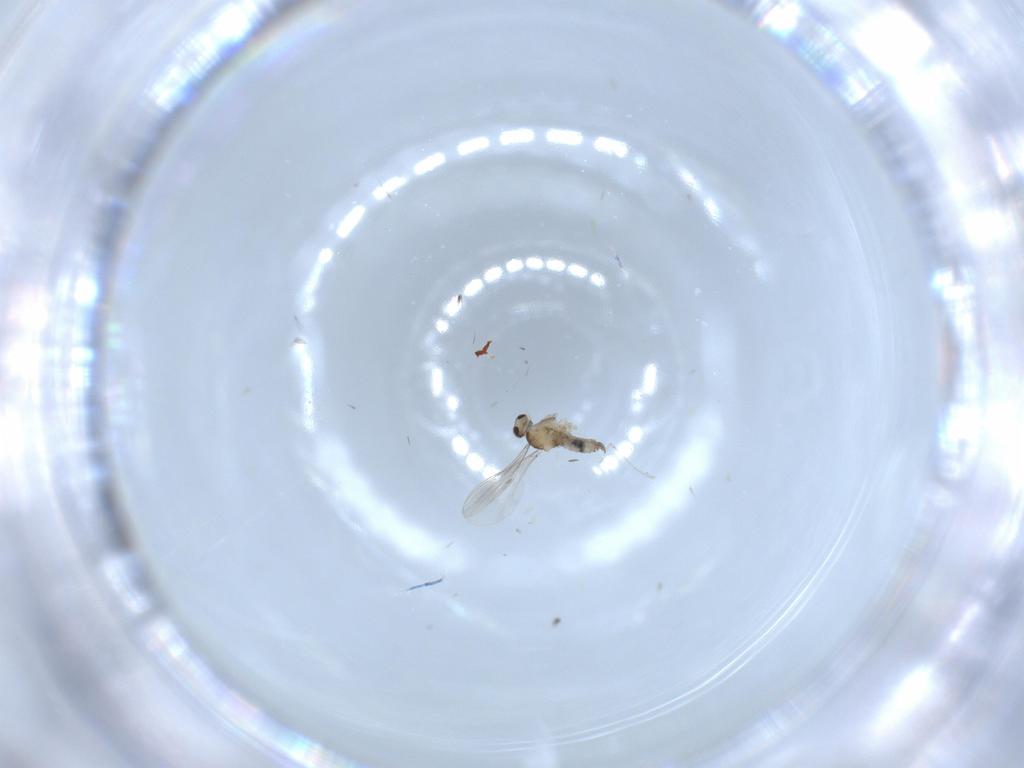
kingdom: Animalia
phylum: Arthropoda
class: Insecta
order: Diptera
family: Cecidomyiidae
